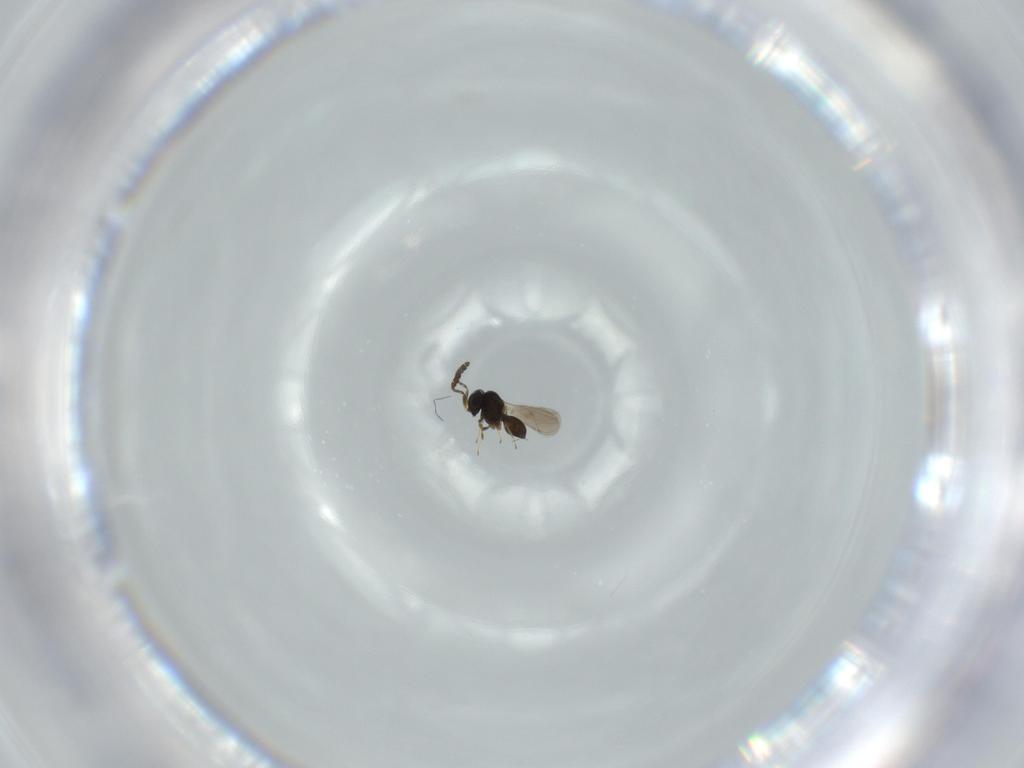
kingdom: Animalia
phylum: Arthropoda
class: Insecta
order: Hymenoptera
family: Scelionidae
